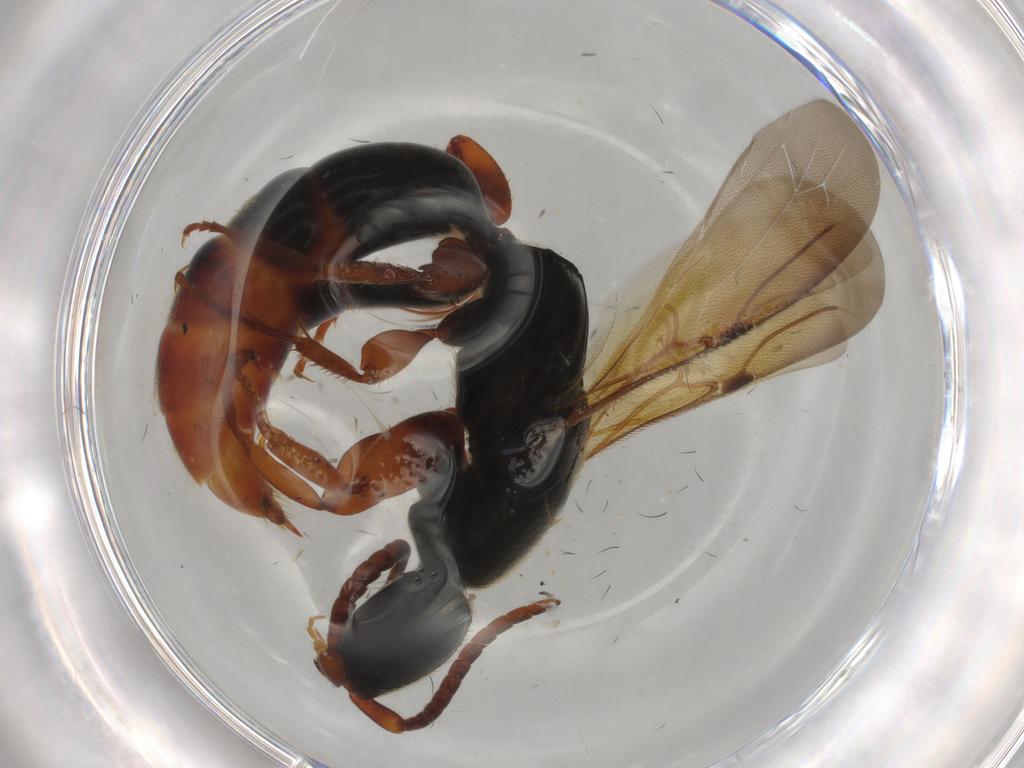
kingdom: Animalia
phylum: Arthropoda
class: Insecta
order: Hymenoptera
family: Bethylidae
